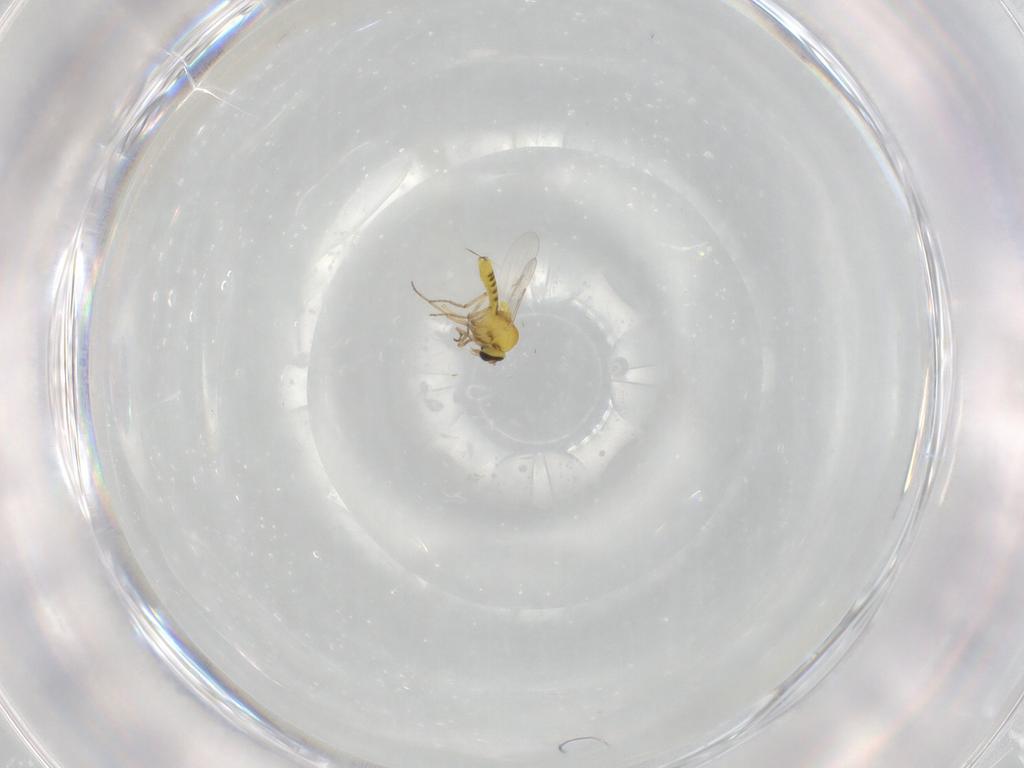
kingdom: Animalia
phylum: Arthropoda
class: Insecta
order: Diptera
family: Ceratopogonidae
